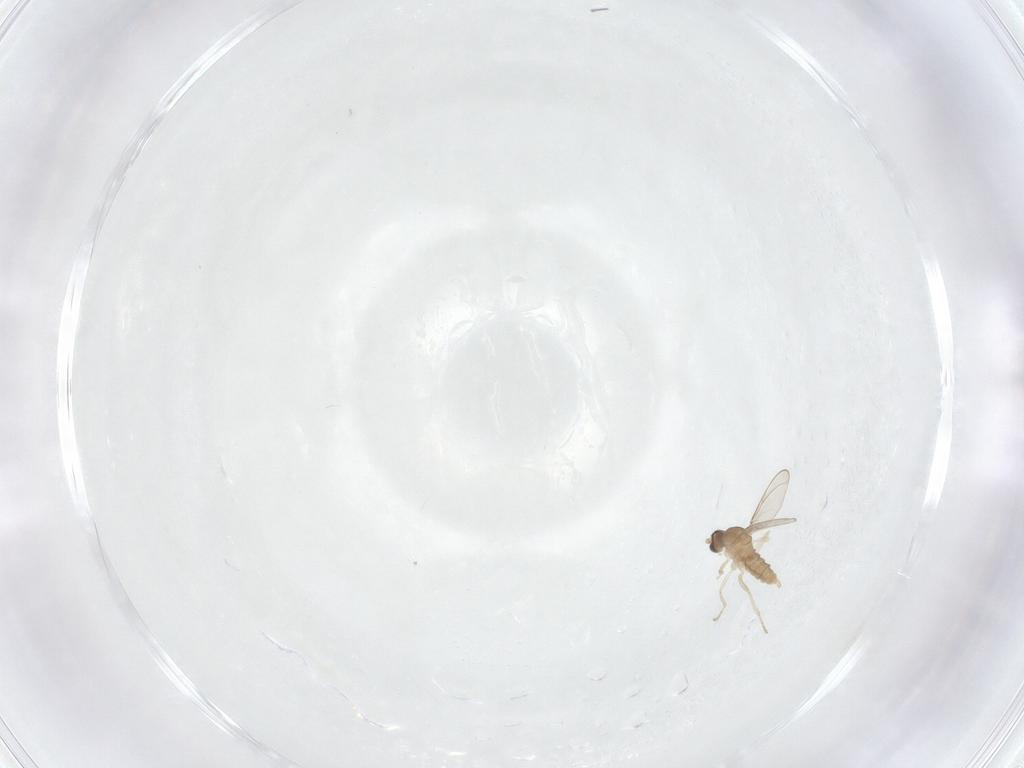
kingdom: Animalia
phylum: Arthropoda
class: Insecta
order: Diptera
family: Cecidomyiidae
